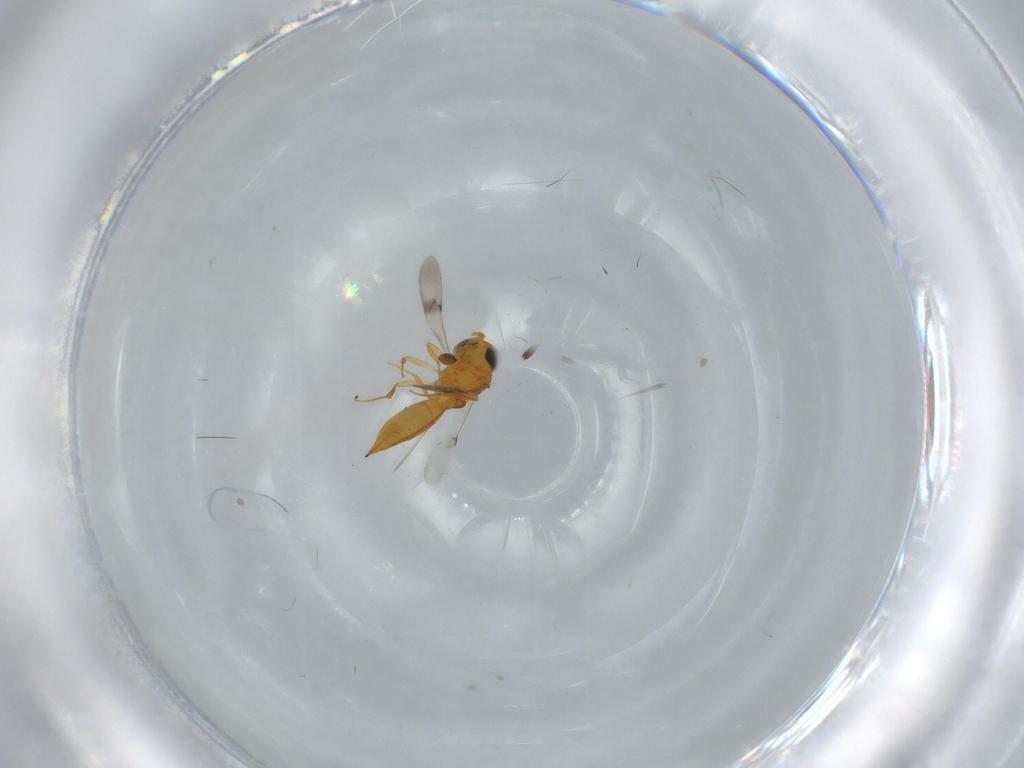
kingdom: Animalia
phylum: Arthropoda
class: Insecta
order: Hymenoptera
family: Scelionidae
